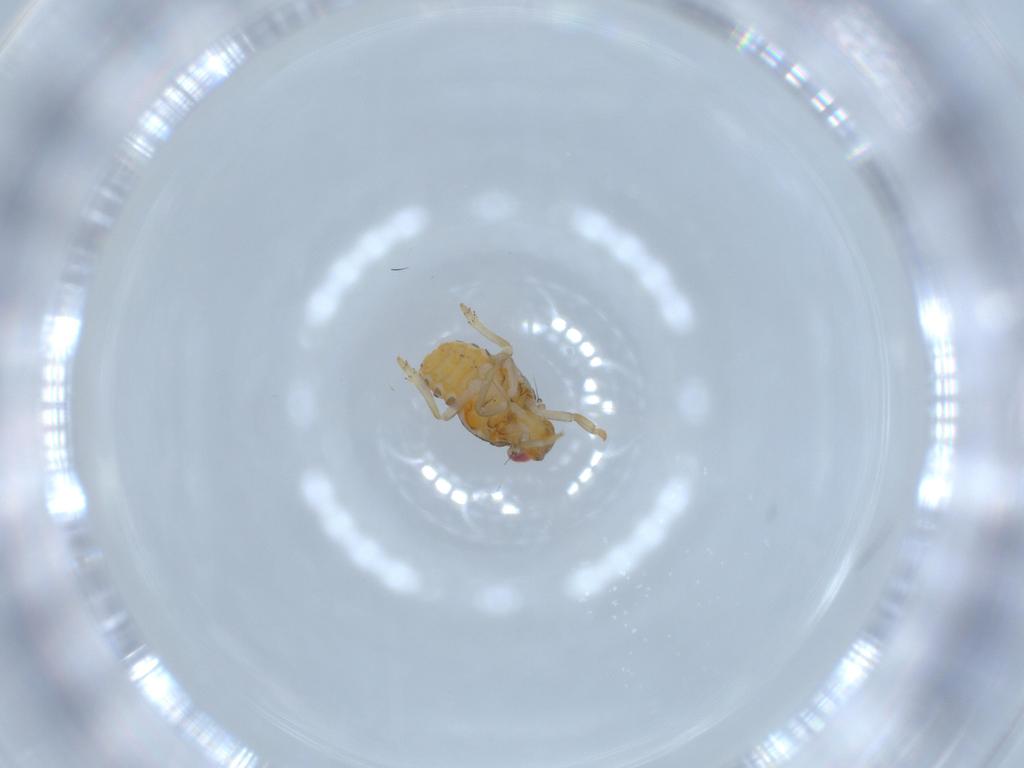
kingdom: Animalia
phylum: Arthropoda
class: Insecta
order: Hemiptera
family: Issidae
